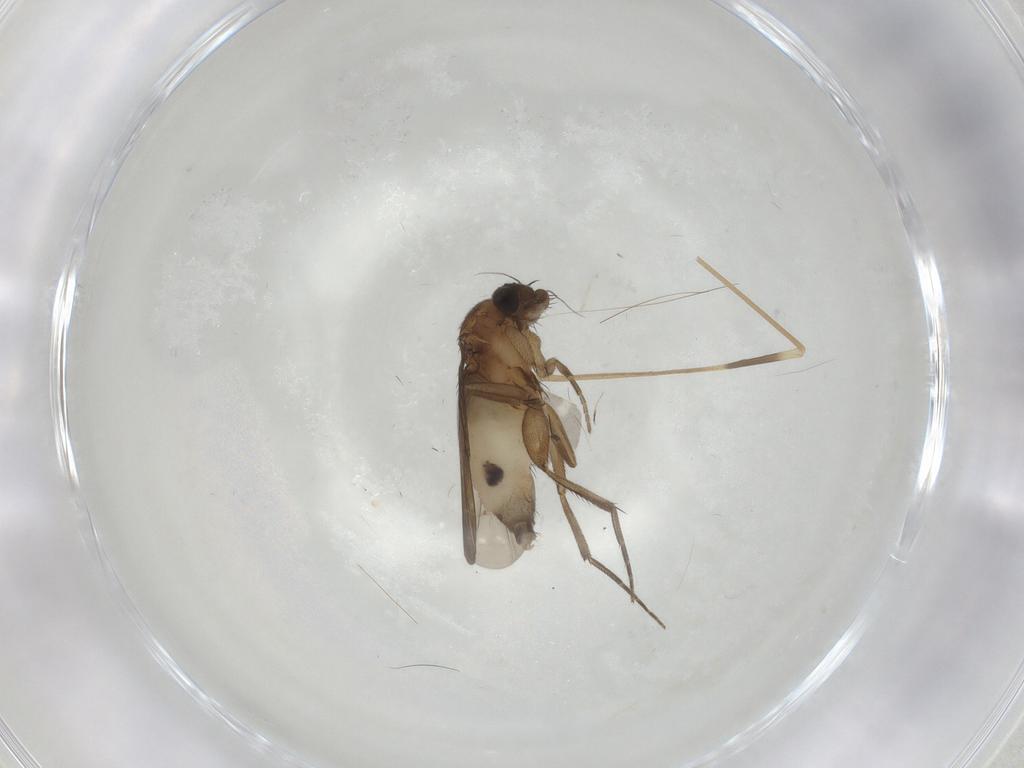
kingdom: Animalia
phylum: Arthropoda
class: Insecta
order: Diptera
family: Phoridae
